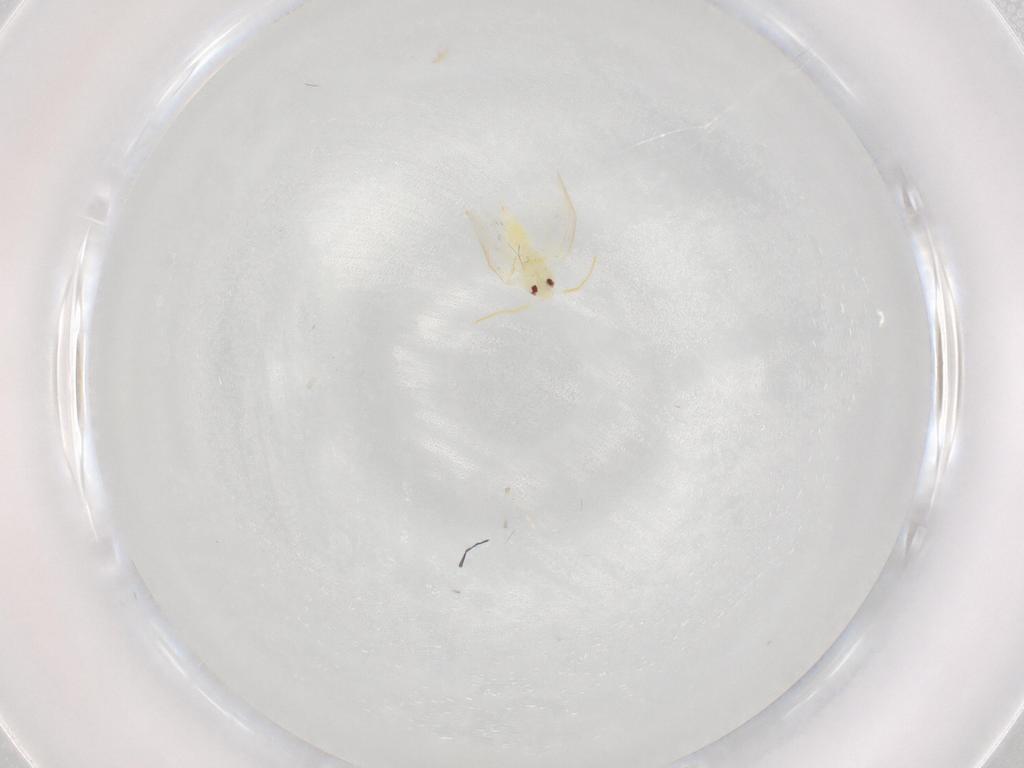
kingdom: Animalia
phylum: Arthropoda
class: Insecta
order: Hemiptera
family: Aleyrodidae
